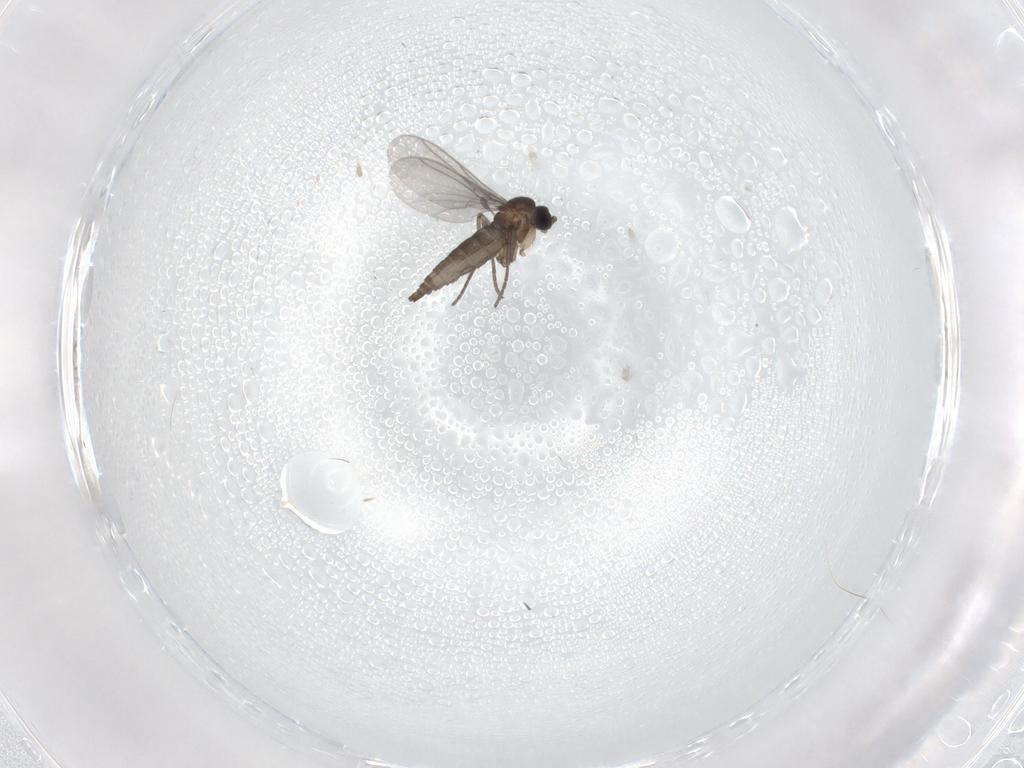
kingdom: Animalia
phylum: Arthropoda
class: Insecta
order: Diptera
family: Sciaridae
